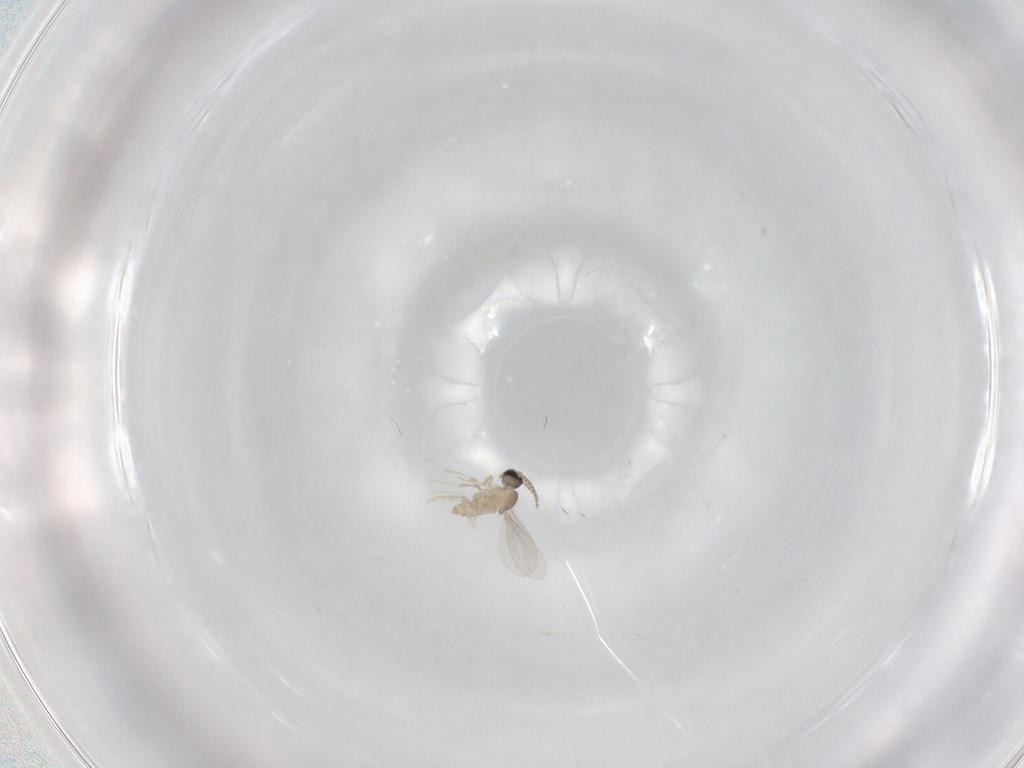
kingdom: Animalia
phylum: Arthropoda
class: Insecta
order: Diptera
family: Cecidomyiidae
